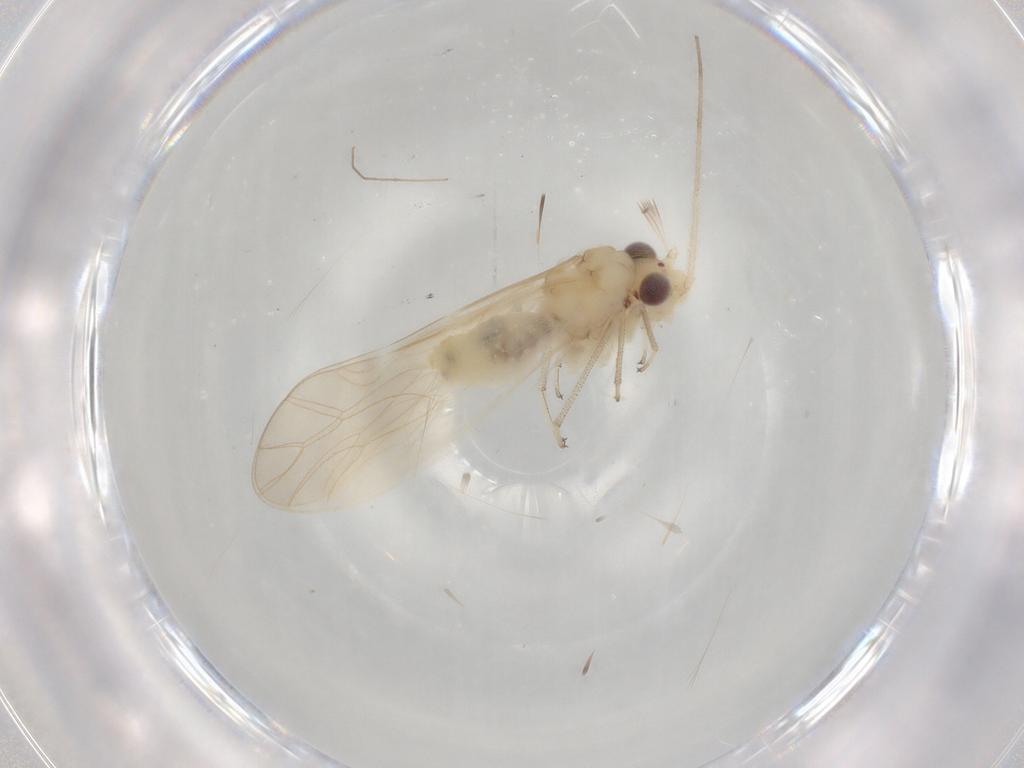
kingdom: Animalia
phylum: Arthropoda
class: Insecta
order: Psocodea
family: Caeciliusidae
